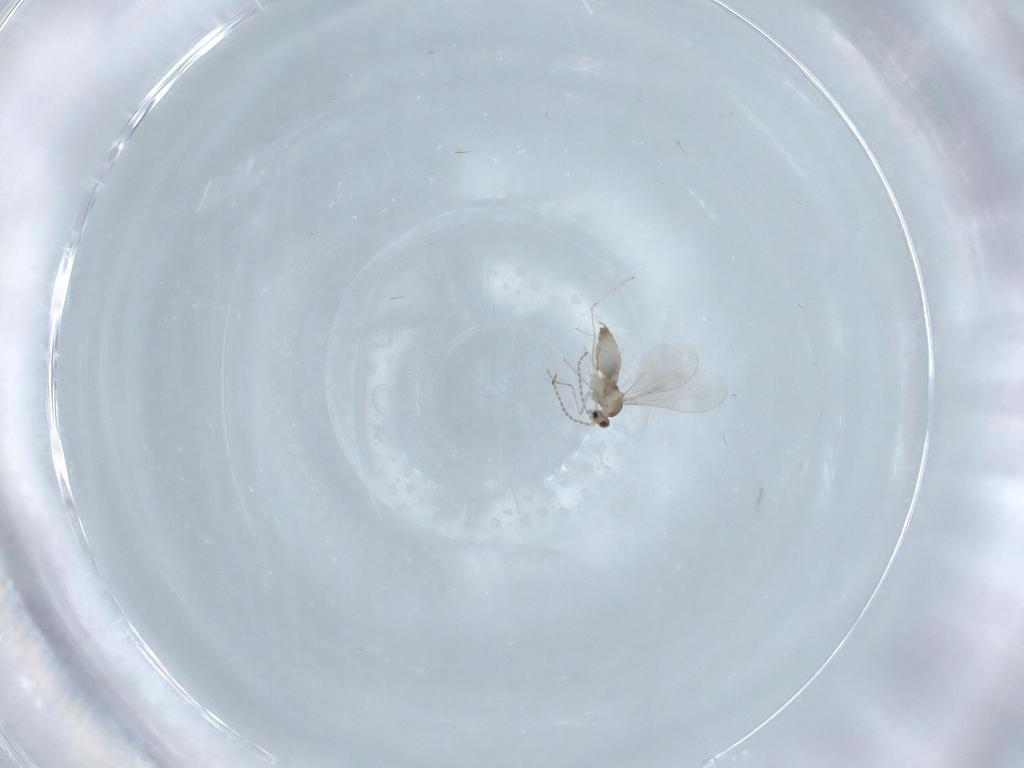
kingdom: Animalia
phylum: Arthropoda
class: Insecta
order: Diptera
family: Cecidomyiidae
